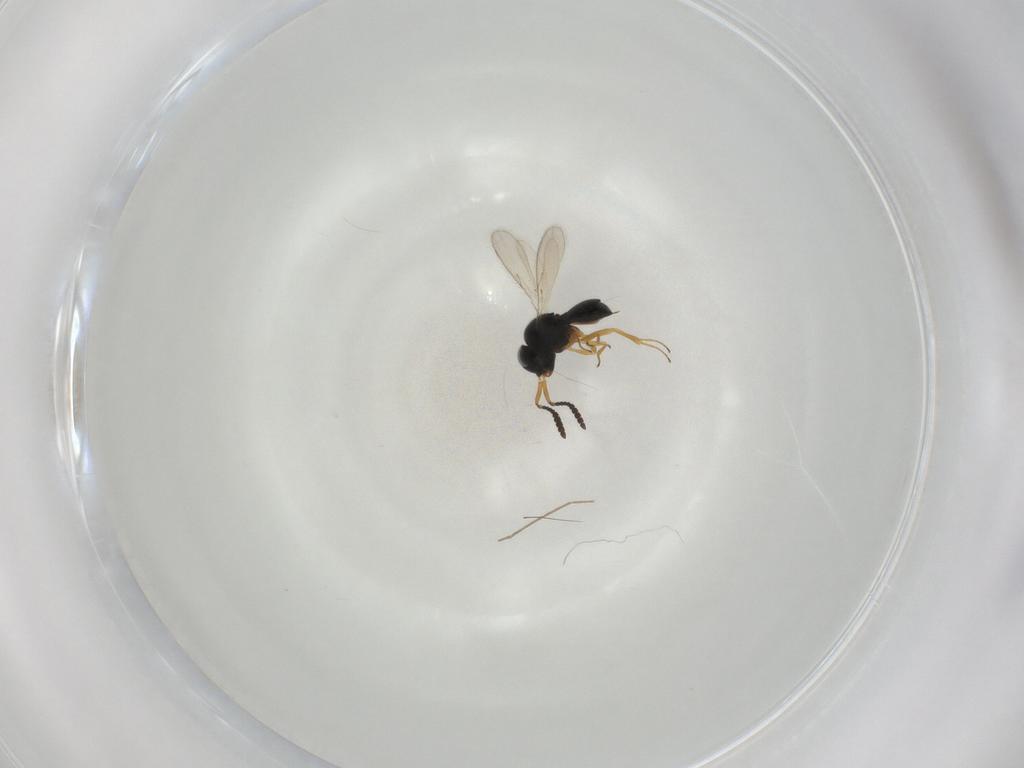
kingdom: Animalia
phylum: Arthropoda
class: Insecta
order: Hymenoptera
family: Scelionidae
